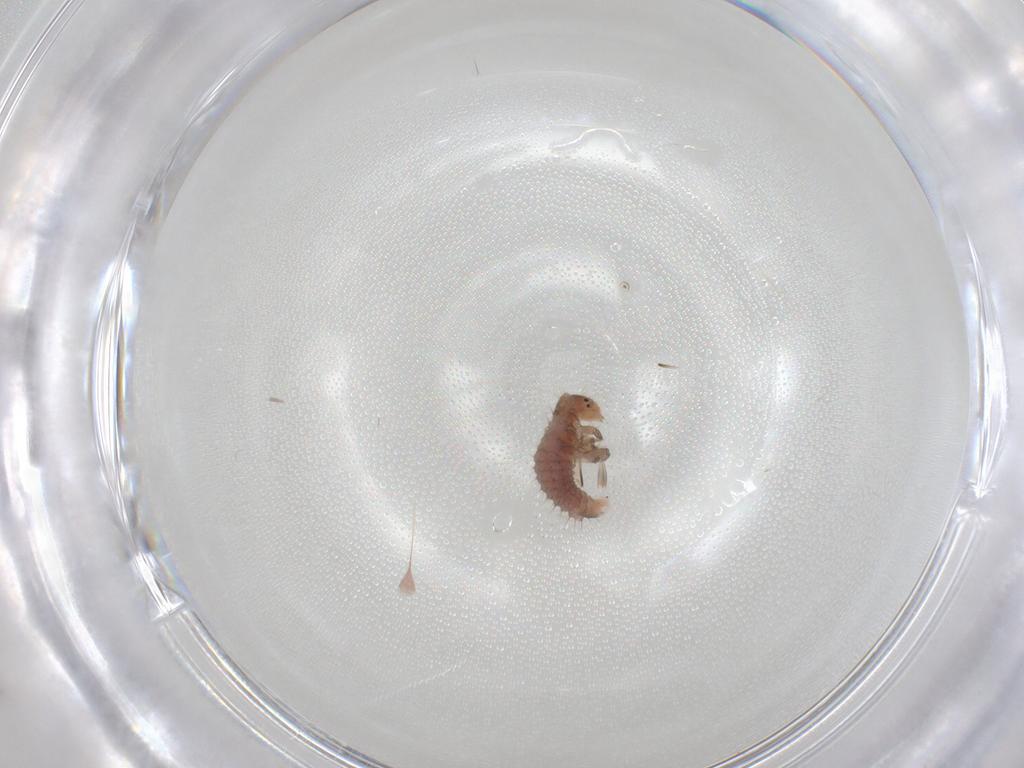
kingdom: Animalia
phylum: Arthropoda
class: Insecta
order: Coleoptera
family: Coccinellidae
